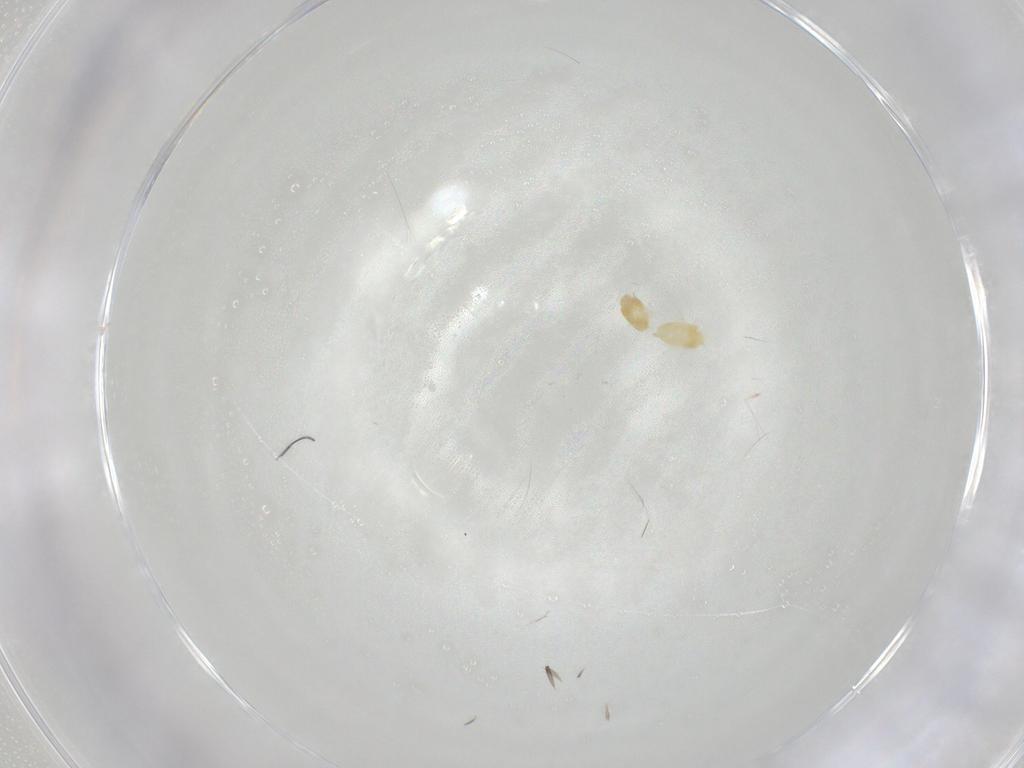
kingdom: Animalia
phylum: Arthropoda
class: Arachnida
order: Trombidiformes
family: Eupodidae
